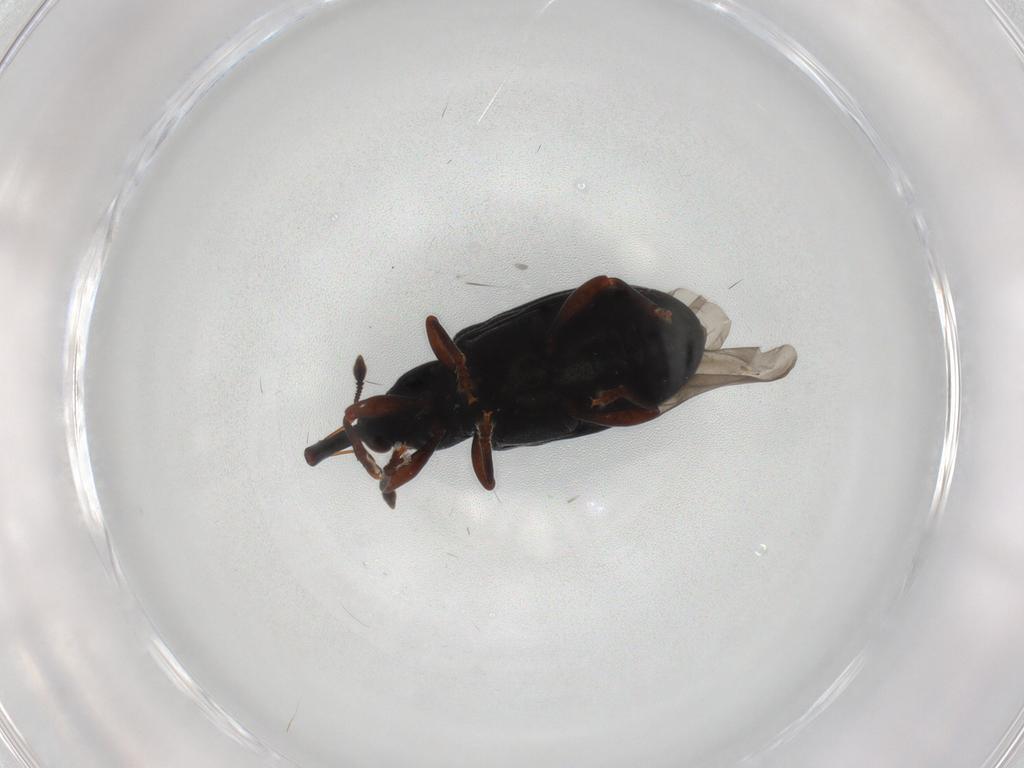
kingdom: Animalia
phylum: Arthropoda
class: Insecta
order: Coleoptera
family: Curculionidae
